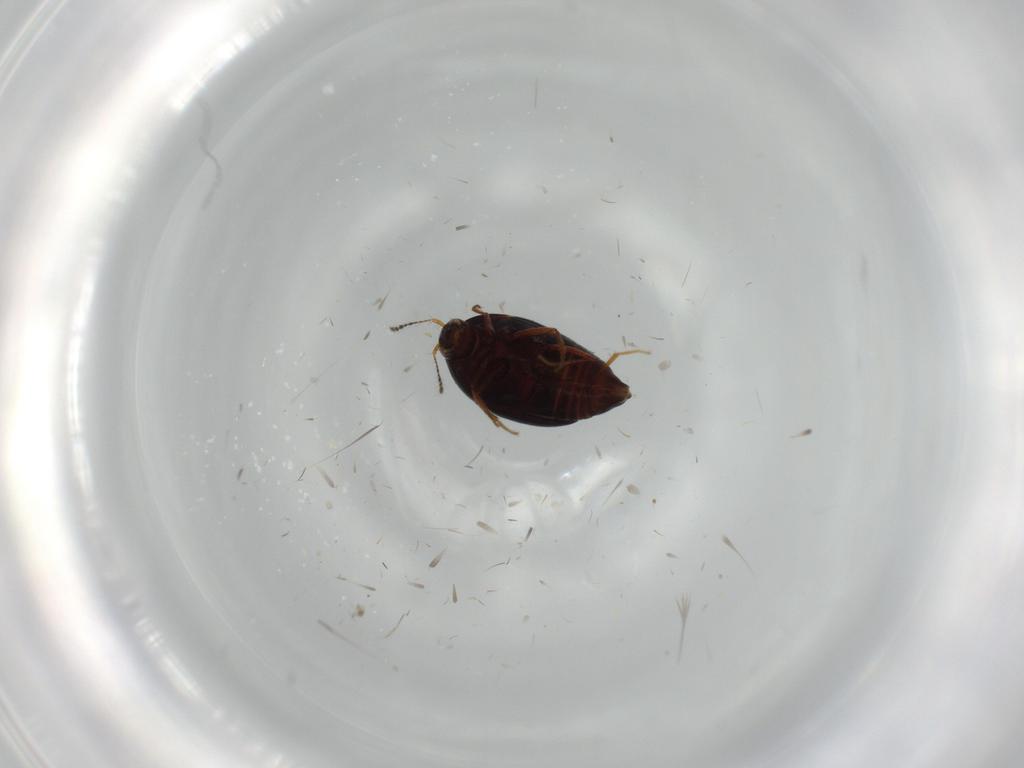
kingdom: Animalia
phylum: Arthropoda
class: Insecta
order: Coleoptera
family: Staphylinidae
